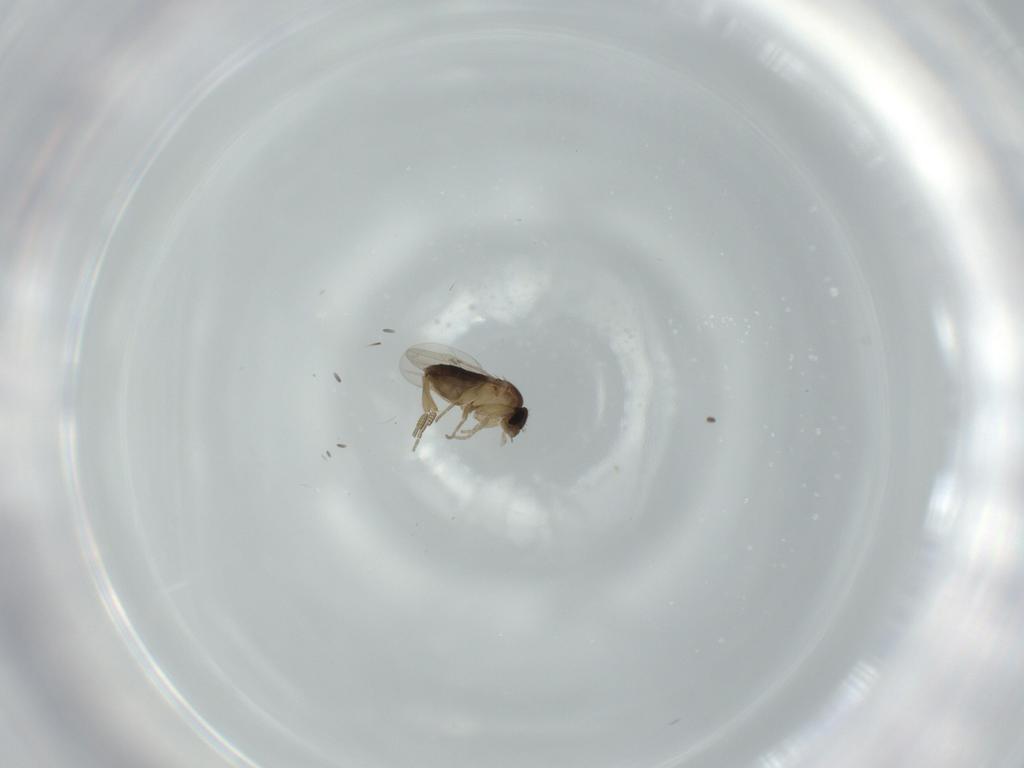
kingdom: Animalia
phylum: Arthropoda
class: Insecta
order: Diptera
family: Phoridae
